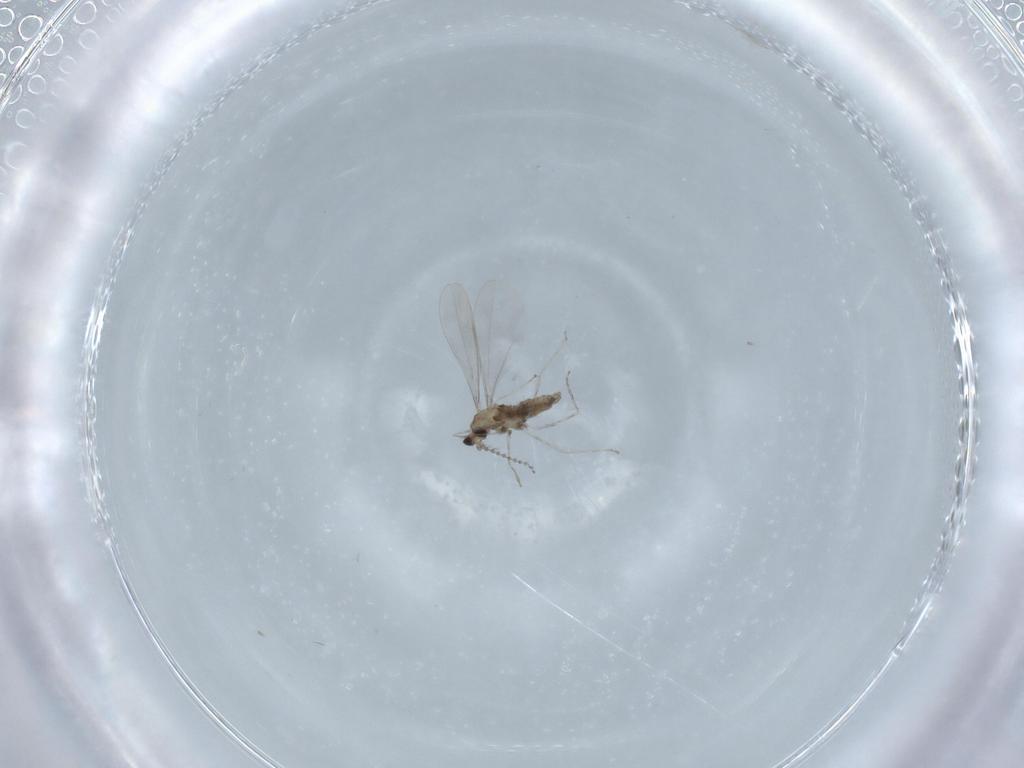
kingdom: Animalia
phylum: Arthropoda
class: Insecta
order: Diptera
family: Cecidomyiidae
